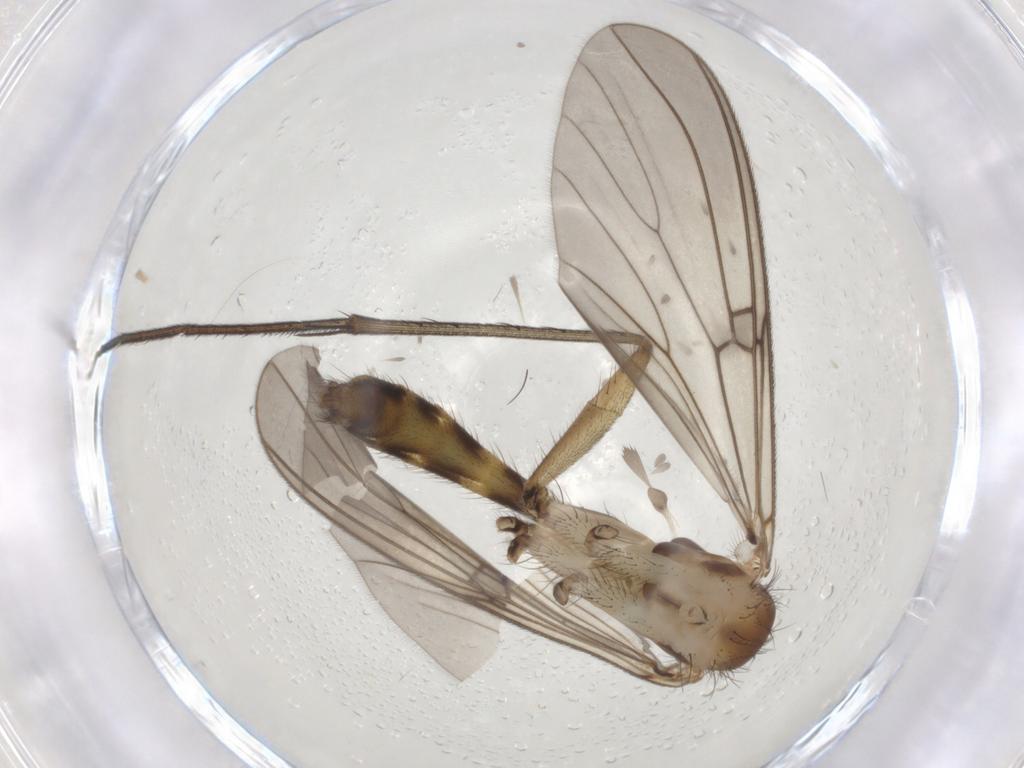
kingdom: Animalia
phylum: Arthropoda
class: Insecta
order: Diptera
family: Mycetophilidae
